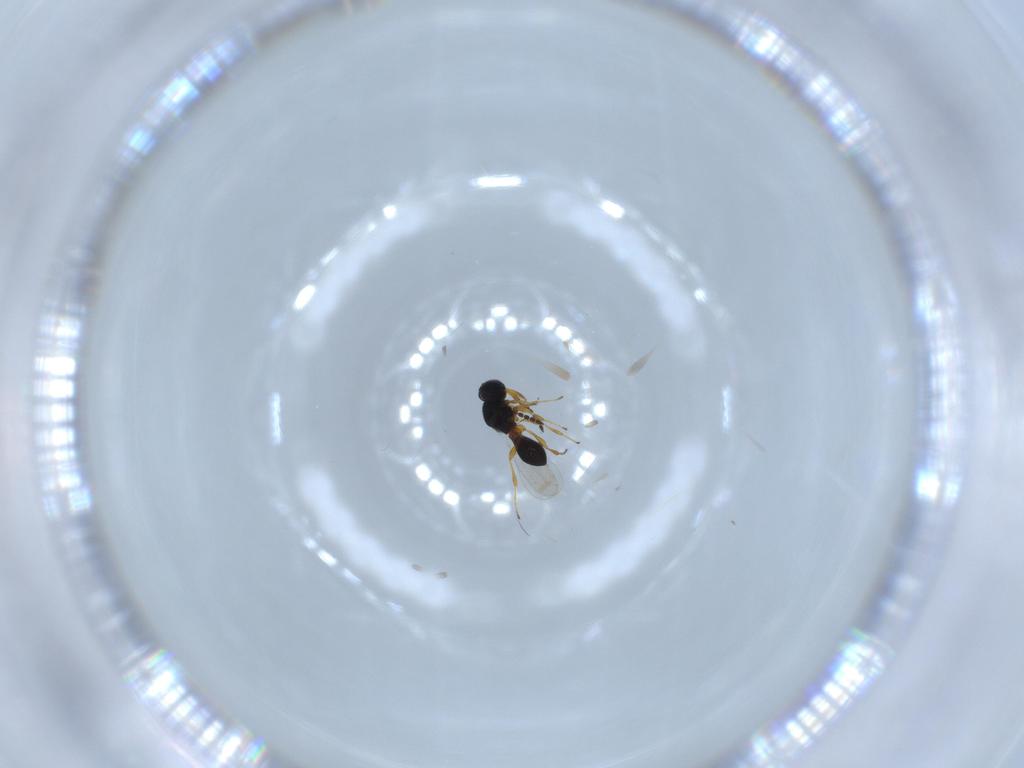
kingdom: Animalia
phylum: Arthropoda
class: Insecta
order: Hymenoptera
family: Platygastridae
